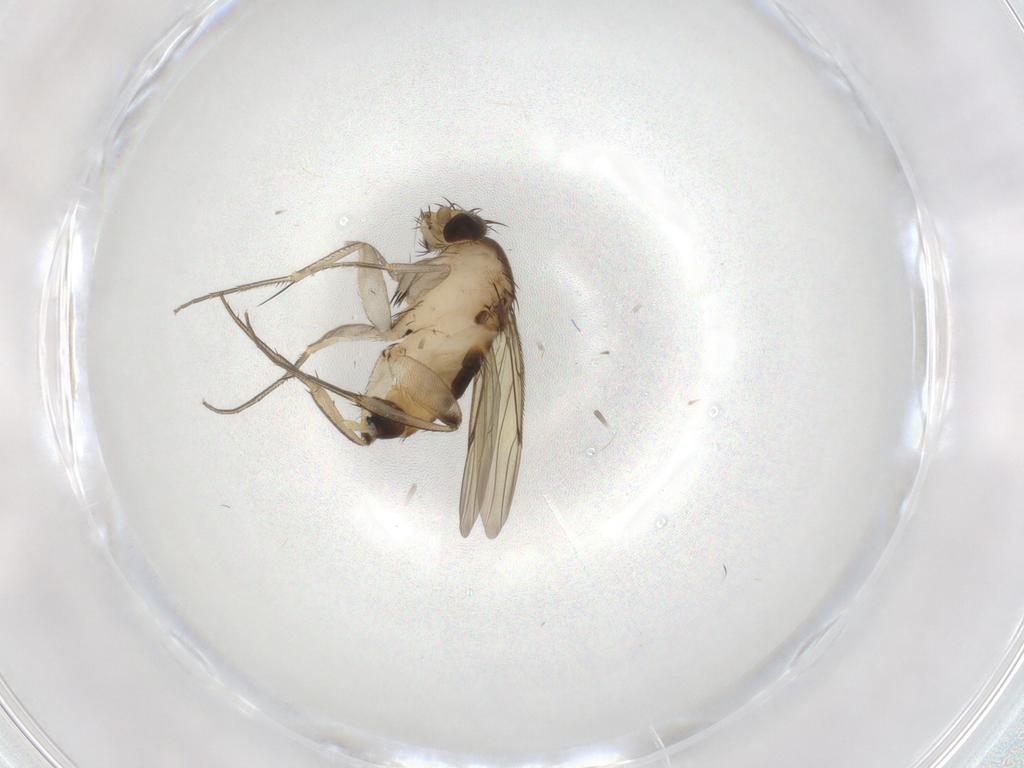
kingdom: Animalia
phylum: Arthropoda
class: Insecta
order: Diptera
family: Phoridae
